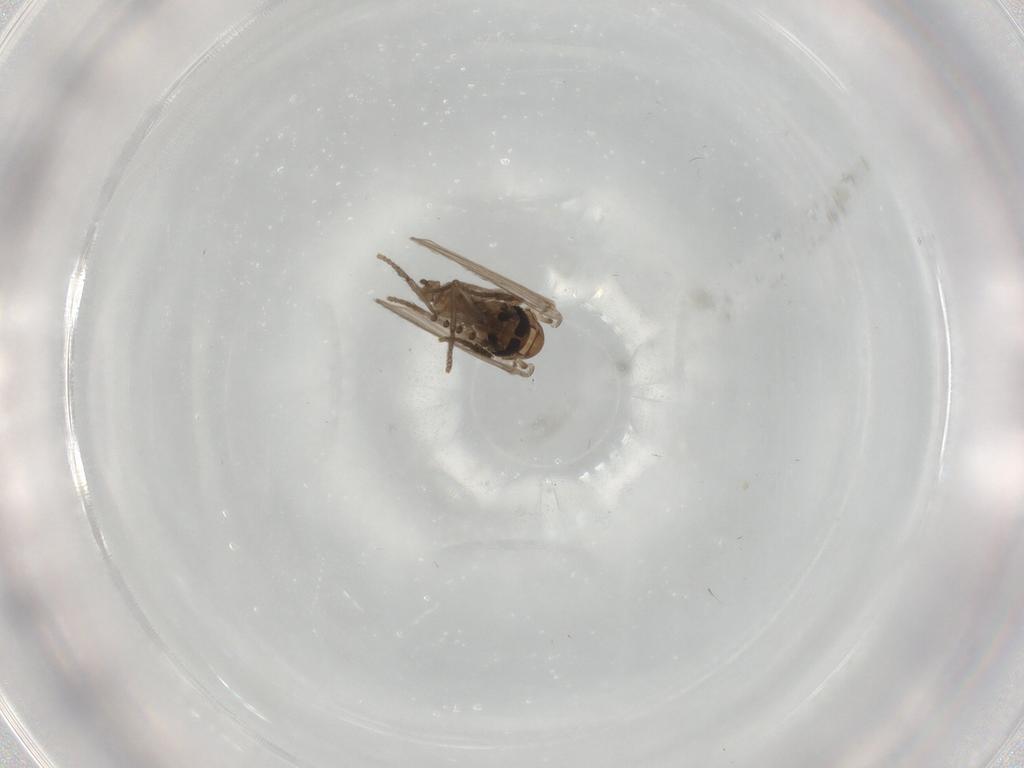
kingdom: Animalia
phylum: Arthropoda
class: Insecta
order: Diptera
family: Psychodidae
